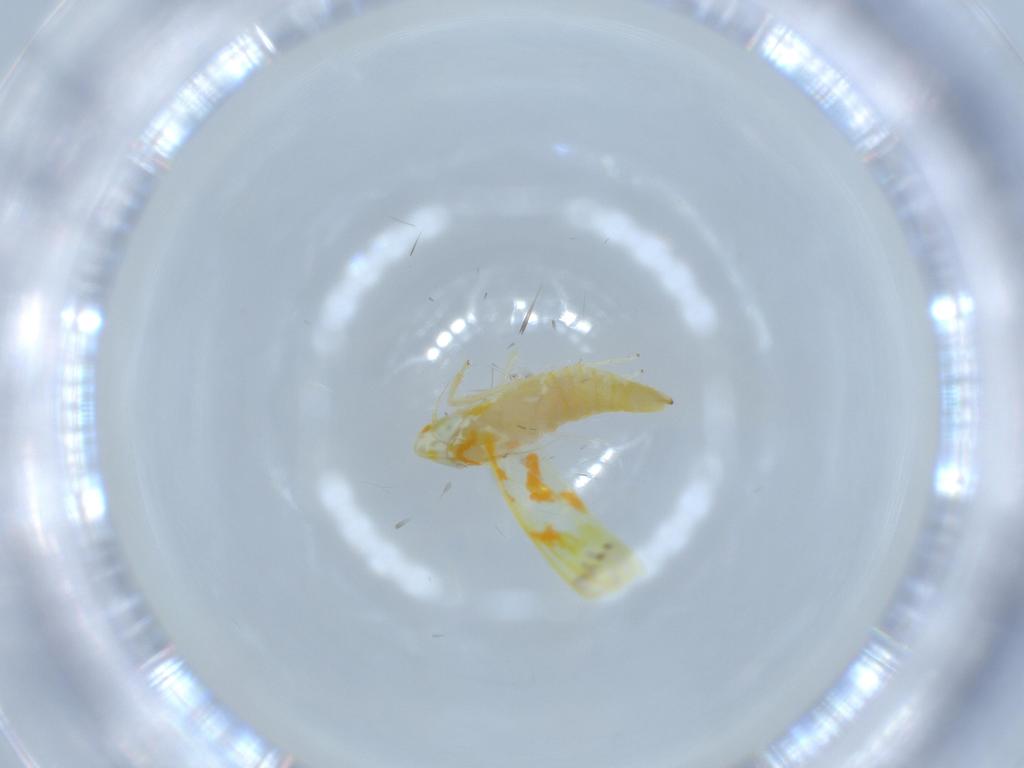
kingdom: Animalia
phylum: Arthropoda
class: Insecta
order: Hemiptera
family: Cicadellidae
